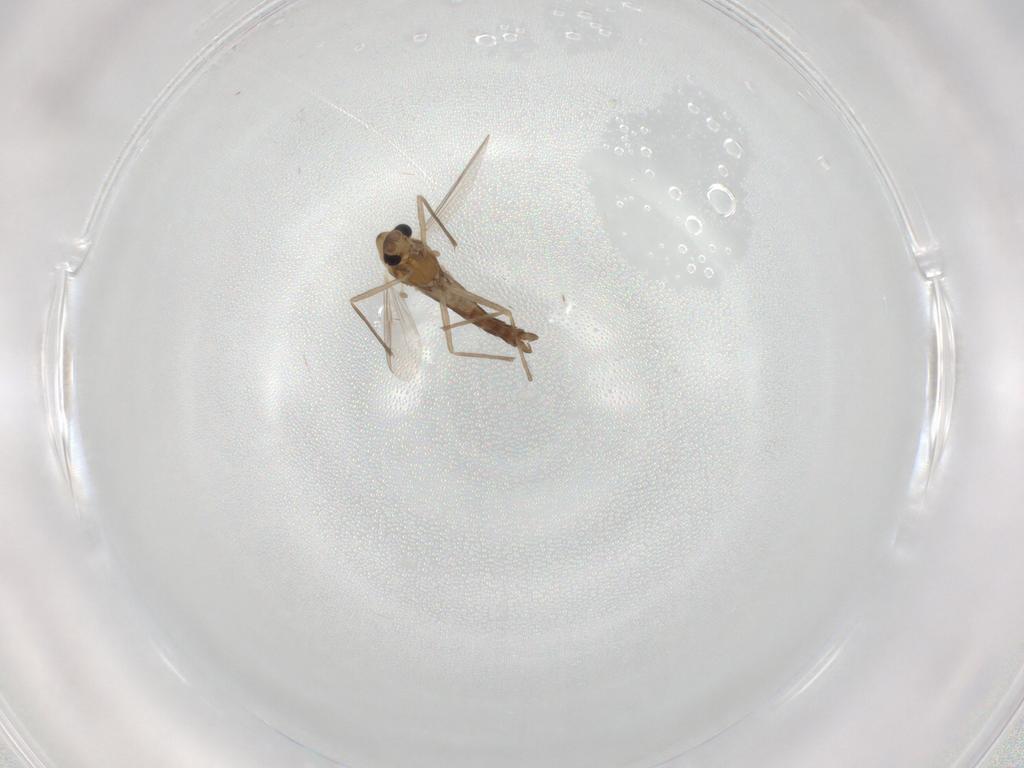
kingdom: Animalia
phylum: Arthropoda
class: Insecta
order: Diptera
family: Chironomidae
